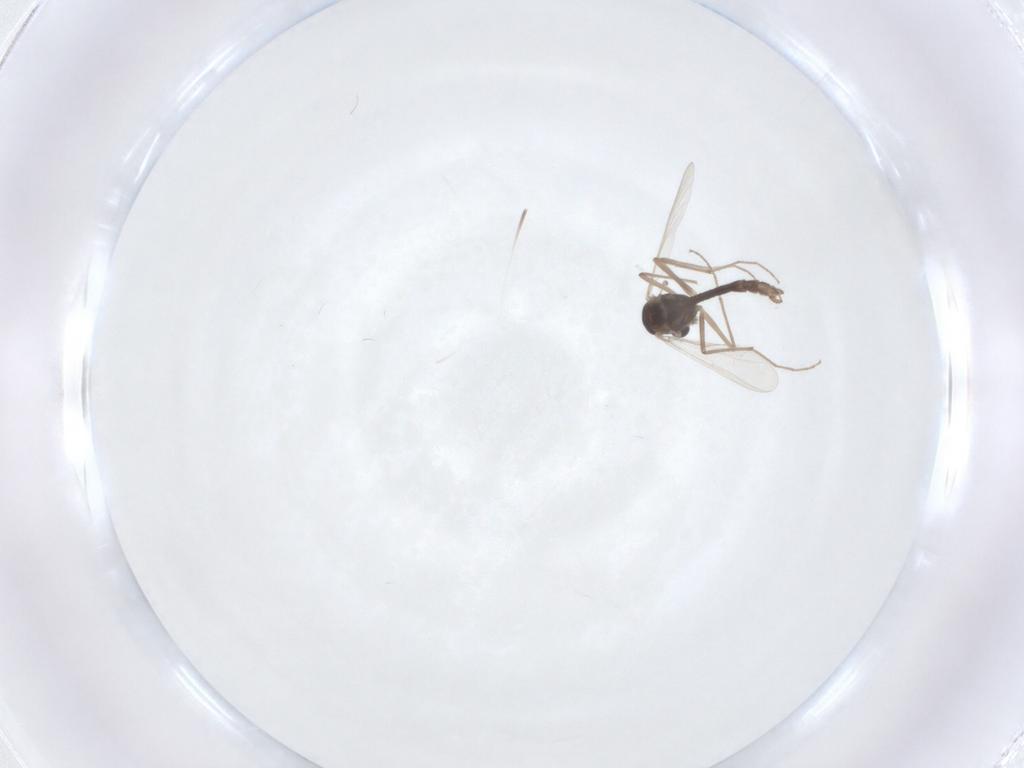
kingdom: Animalia
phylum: Arthropoda
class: Insecta
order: Diptera
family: Chironomidae
